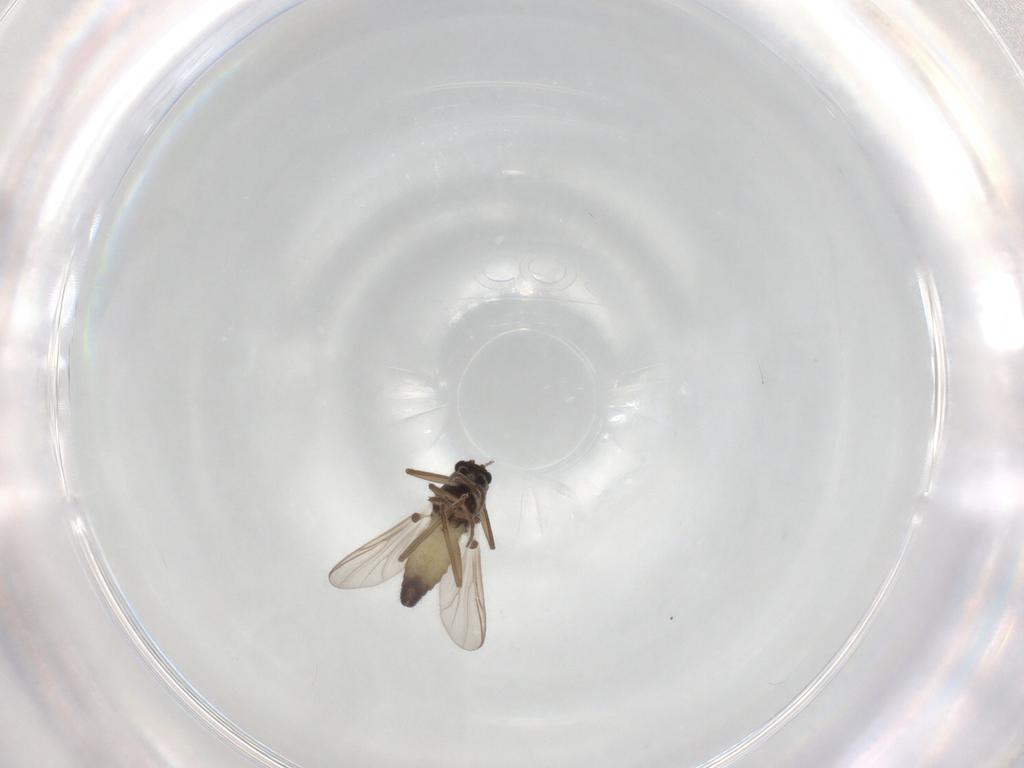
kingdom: Animalia
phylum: Arthropoda
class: Insecta
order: Diptera
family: Chironomidae
